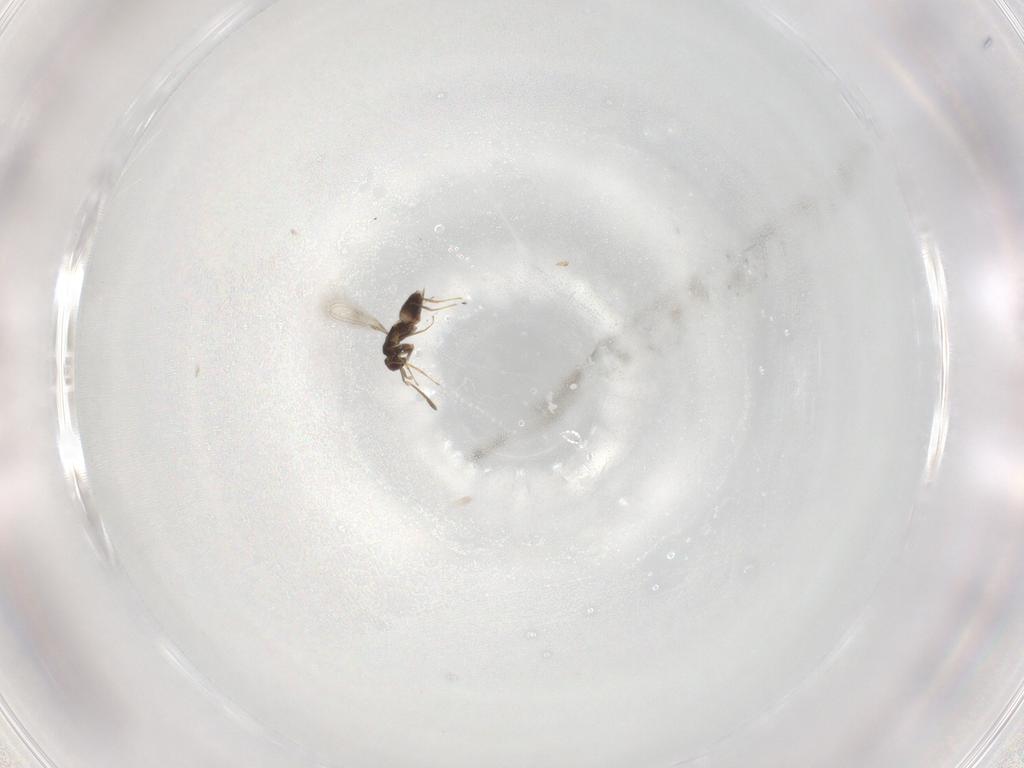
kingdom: Animalia
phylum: Arthropoda
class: Insecta
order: Hymenoptera
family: Mymaridae
